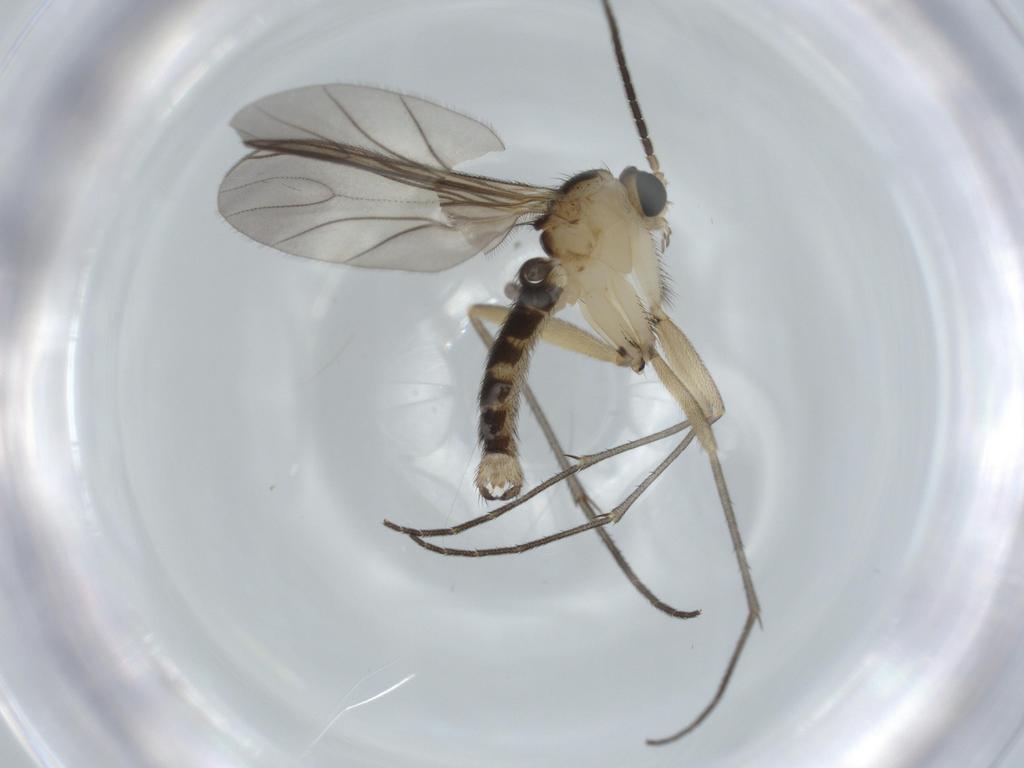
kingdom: Animalia
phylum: Arthropoda
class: Insecta
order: Diptera
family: Sciaridae
